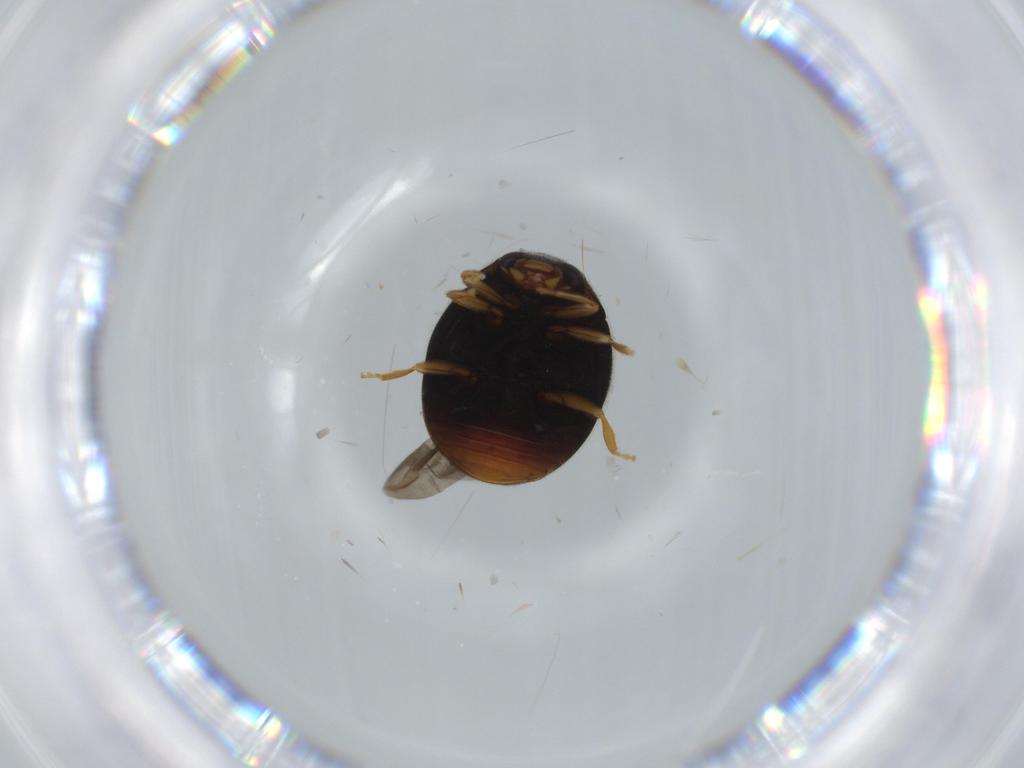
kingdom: Animalia
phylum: Arthropoda
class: Insecta
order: Coleoptera
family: Coccinellidae
